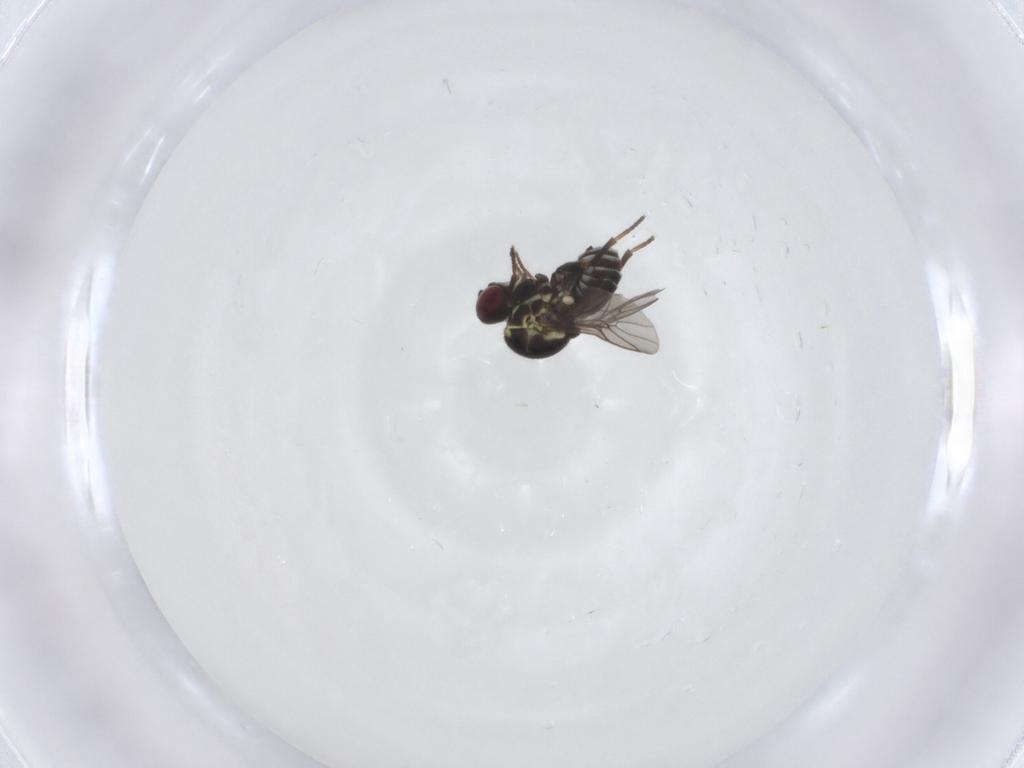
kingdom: Animalia
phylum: Arthropoda
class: Insecta
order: Diptera
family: Bombyliidae
